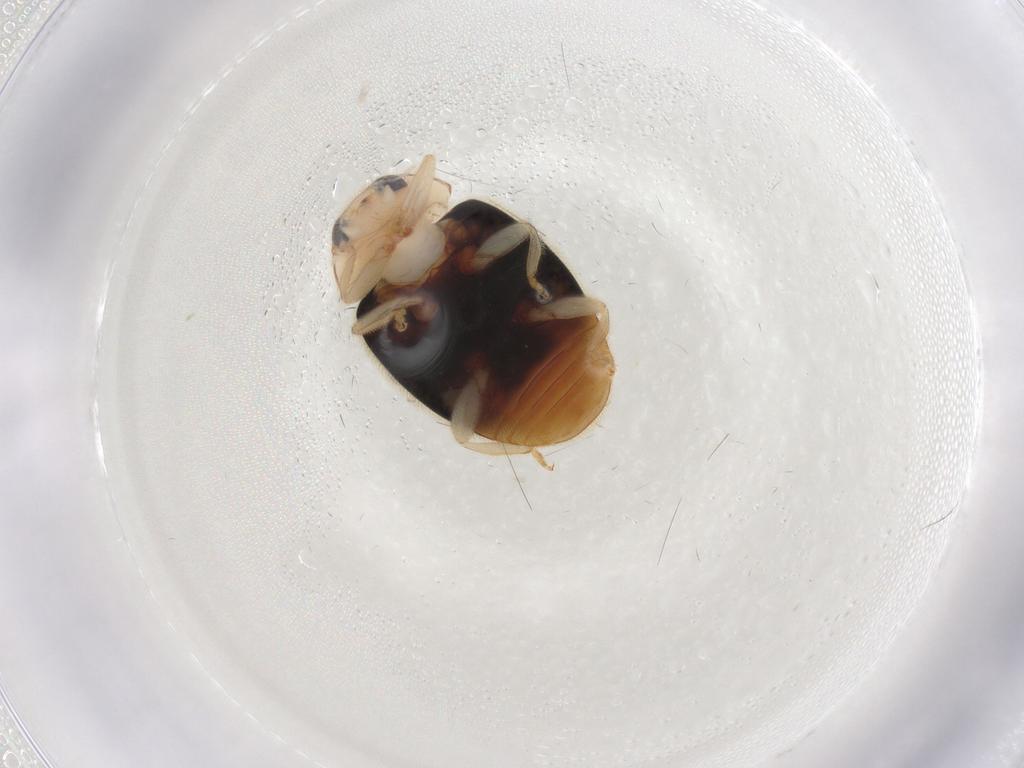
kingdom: Animalia
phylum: Arthropoda
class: Insecta
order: Coleoptera
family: Coccinellidae
